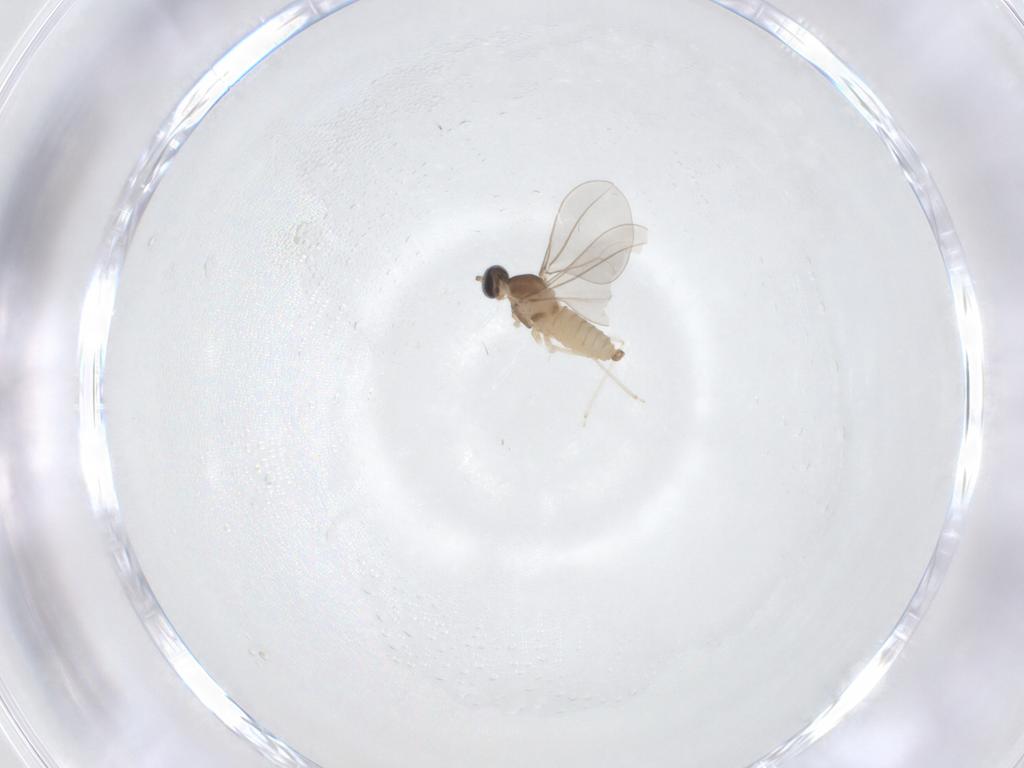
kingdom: Animalia
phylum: Arthropoda
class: Insecta
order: Diptera
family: Cecidomyiidae
